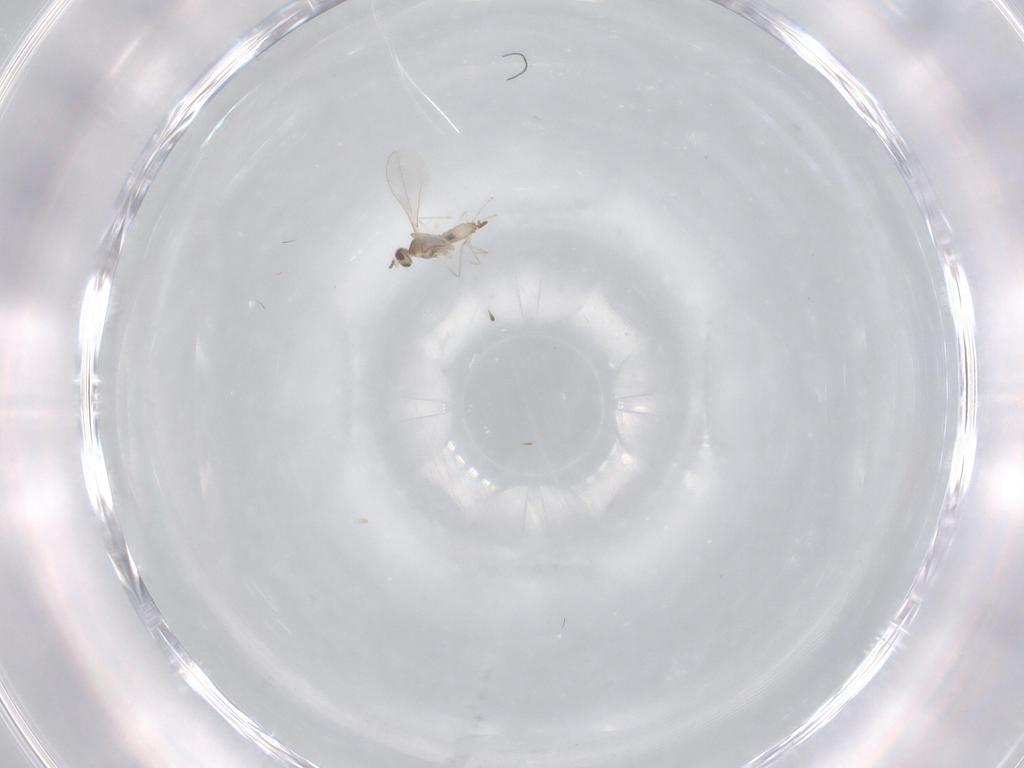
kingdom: Animalia
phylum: Arthropoda
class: Insecta
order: Diptera
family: Cecidomyiidae
